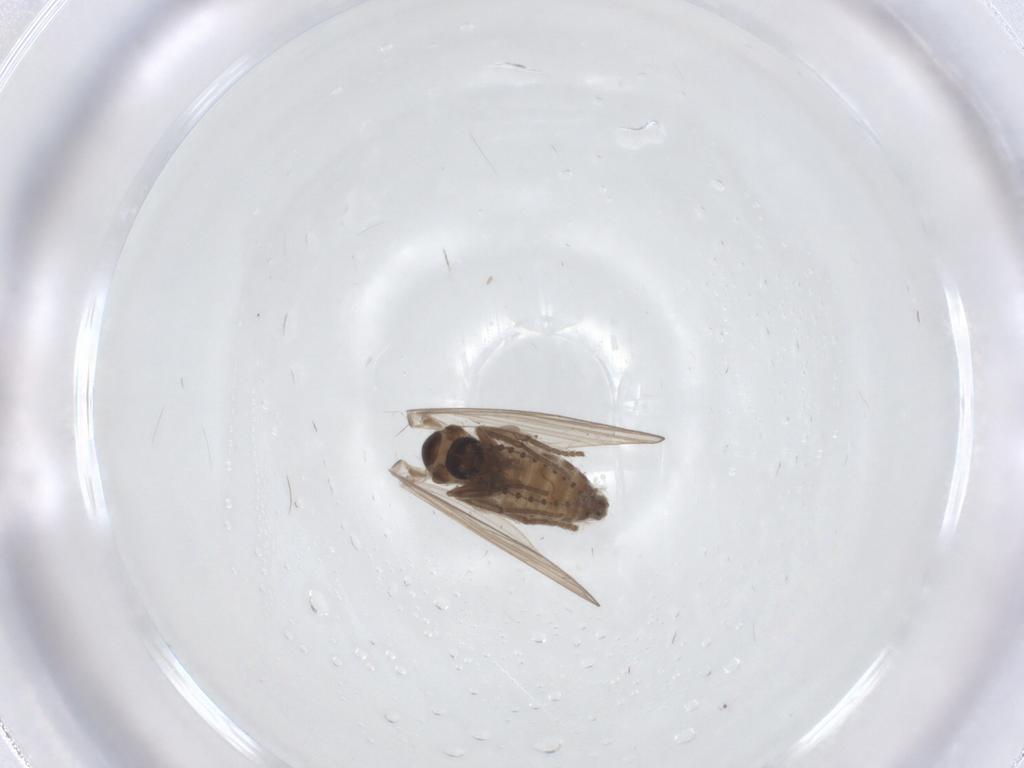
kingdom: Animalia
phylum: Arthropoda
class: Insecta
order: Diptera
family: Psychodidae
